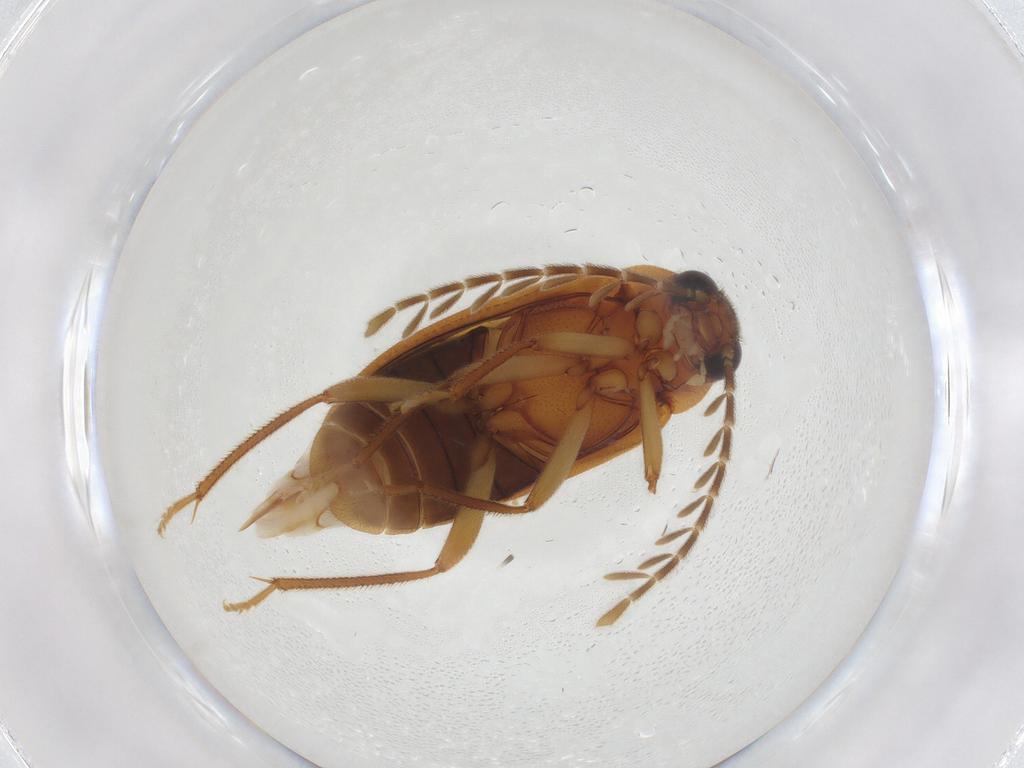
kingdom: Animalia
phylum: Arthropoda
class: Insecta
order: Coleoptera
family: Ptilodactylidae
